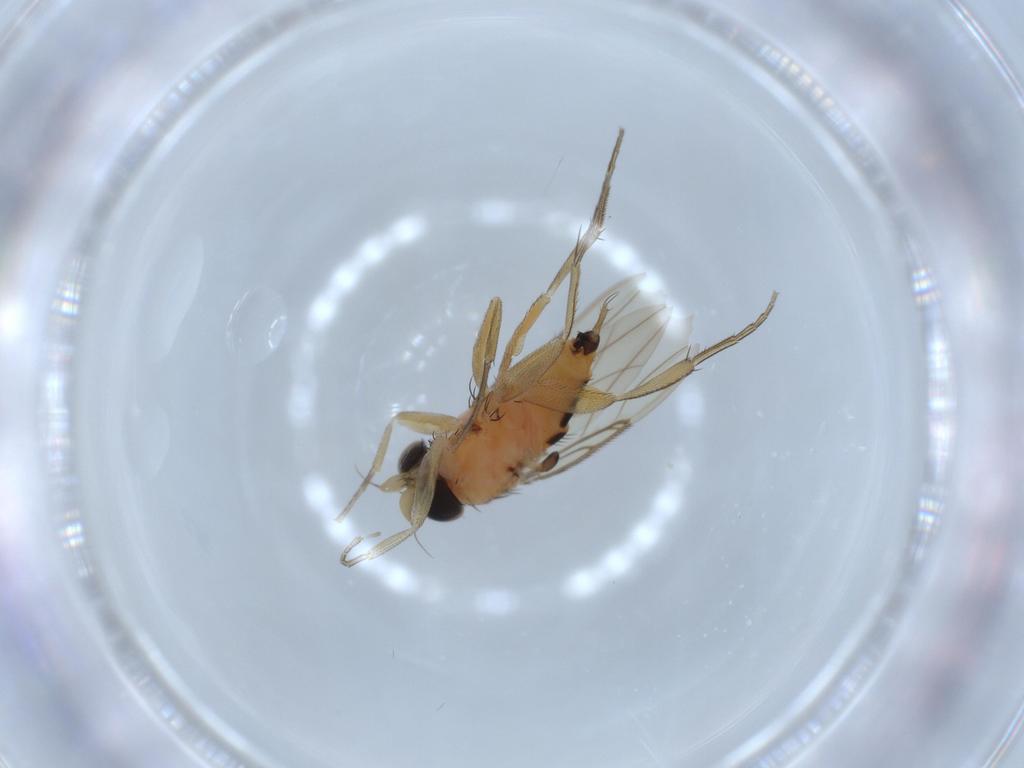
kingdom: Animalia
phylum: Arthropoda
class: Insecta
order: Diptera
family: Phoridae
